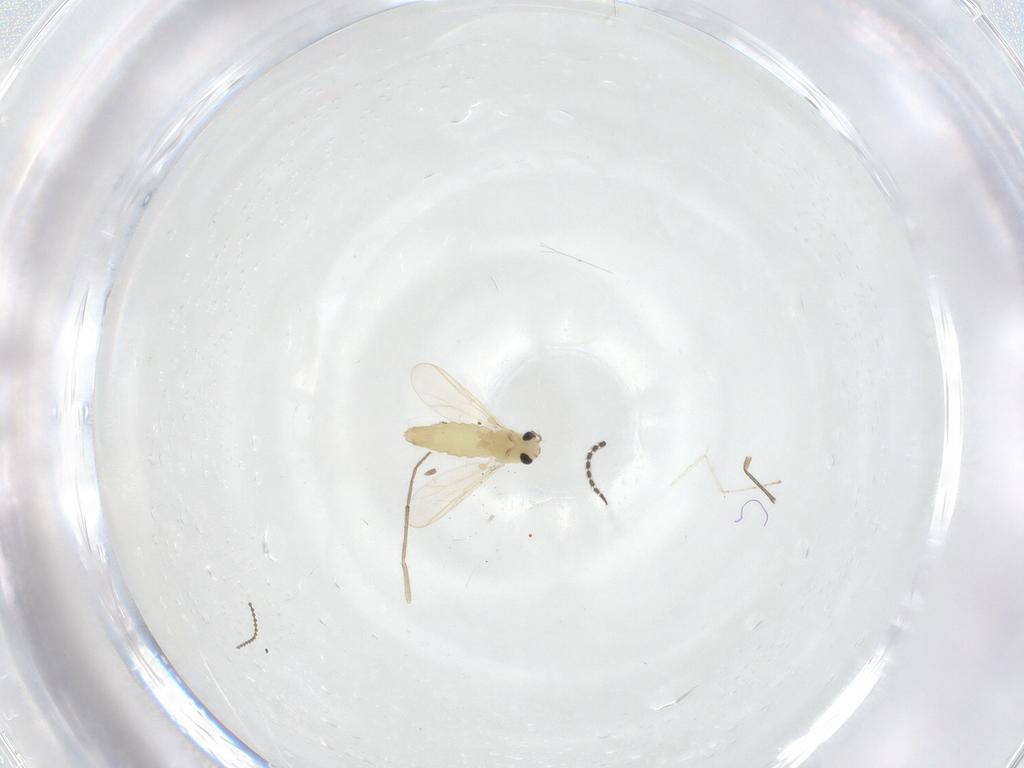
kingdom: Animalia
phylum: Arthropoda
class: Insecta
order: Diptera
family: Chironomidae
